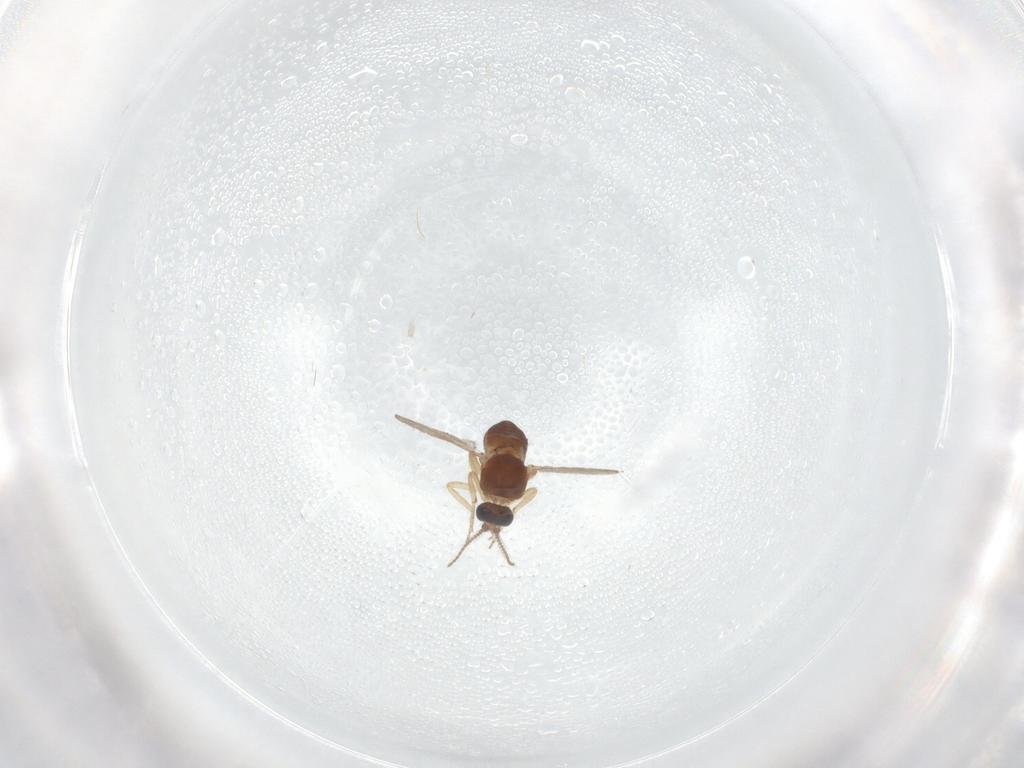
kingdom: Animalia
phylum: Arthropoda
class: Insecta
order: Diptera
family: Ceratopogonidae
